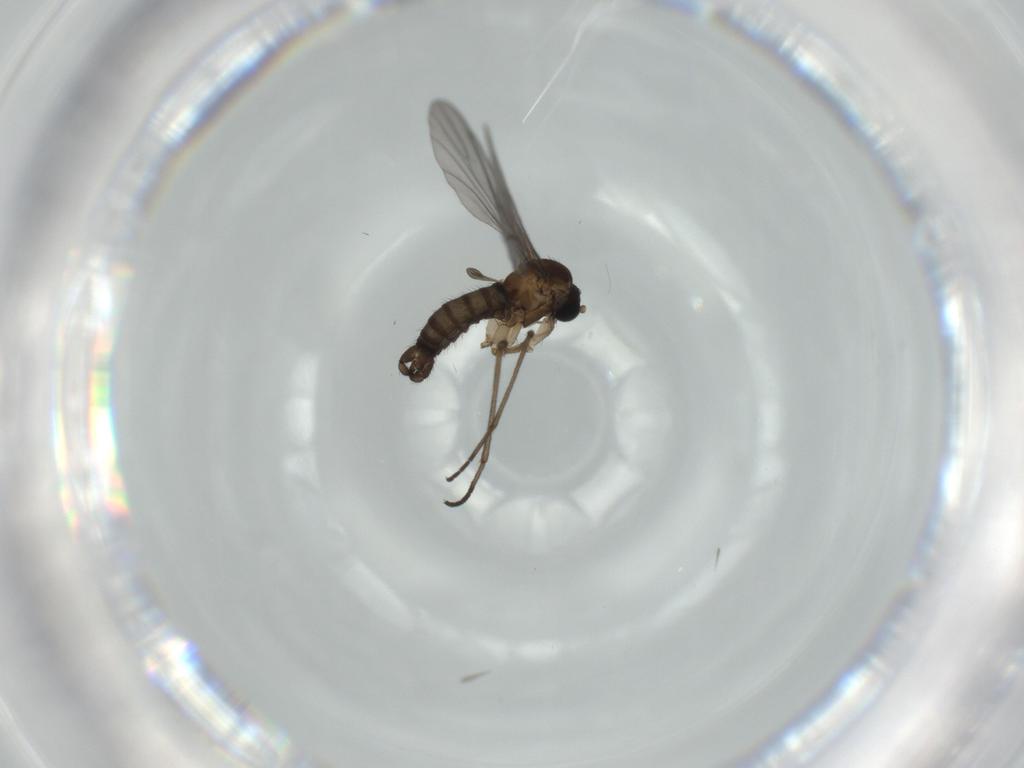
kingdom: Animalia
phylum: Arthropoda
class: Insecta
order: Diptera
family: Sciaridae
